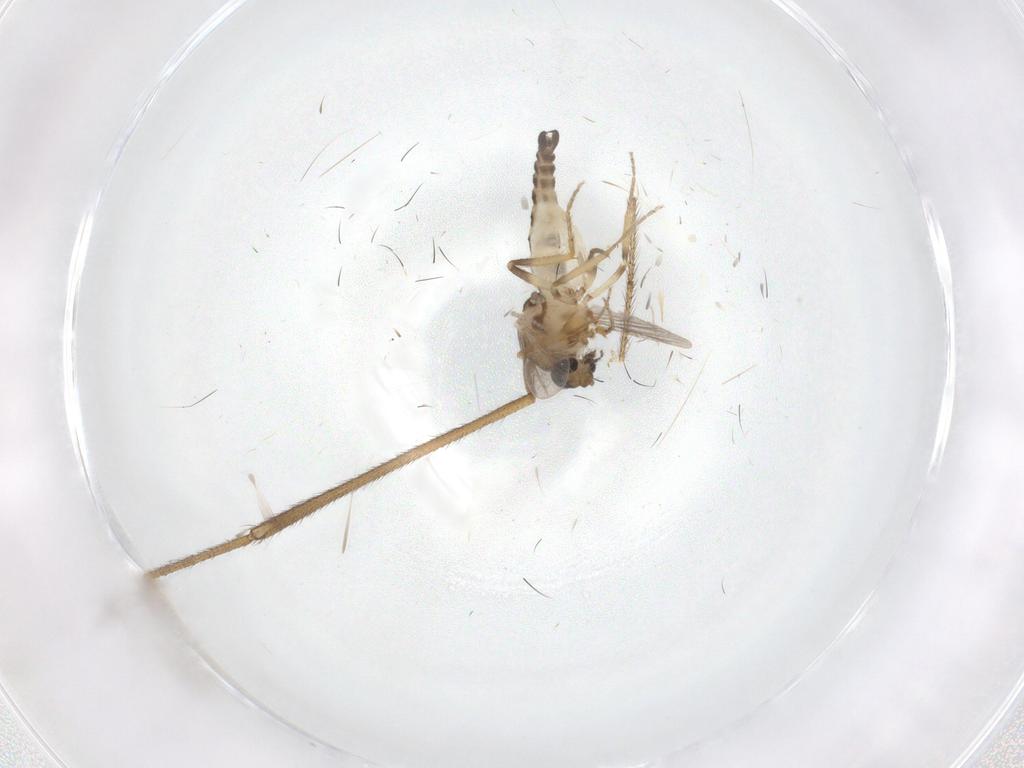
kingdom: Animalia
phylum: Arthropoda
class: Insecta
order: Diptera
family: Ceratopogonidae
